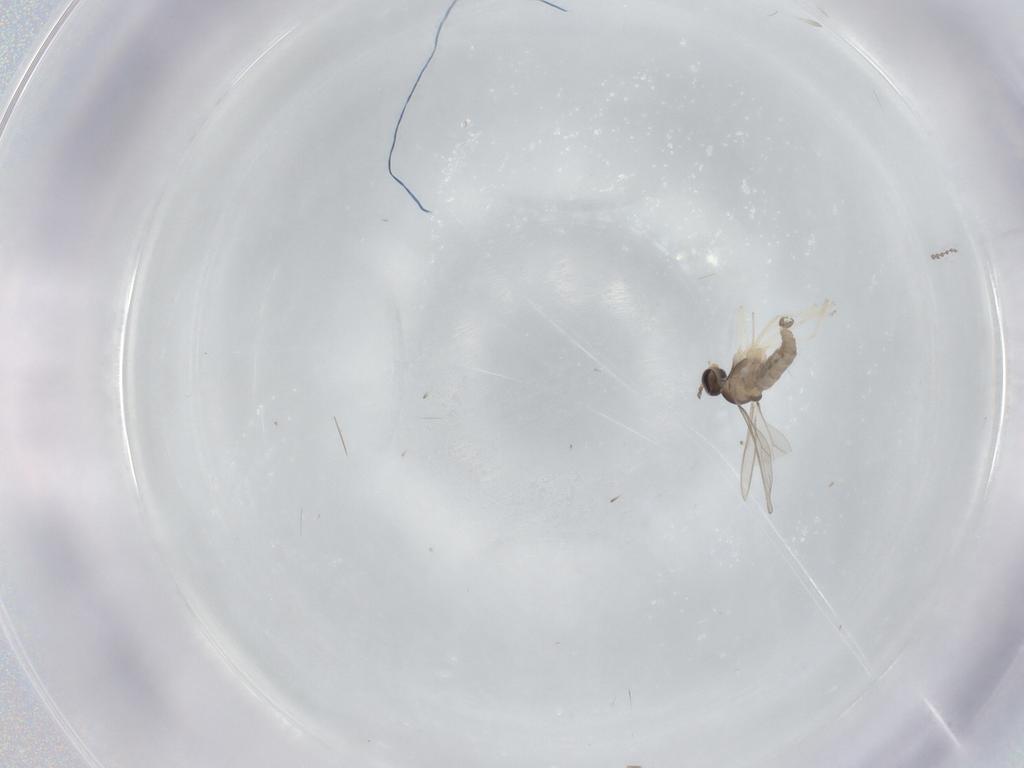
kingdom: Animalia
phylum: Arthropoda
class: Insecta
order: Diptera
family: Cecidomyiidae
